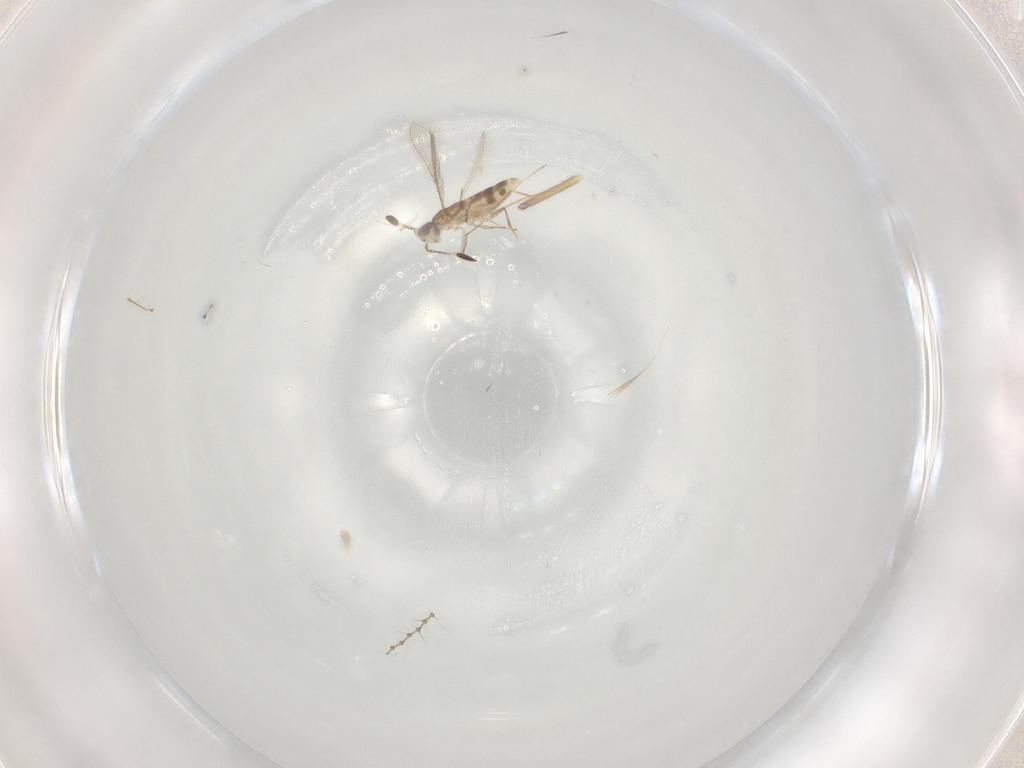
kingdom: Animalia
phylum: Arthropoda
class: Insecta
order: Hymenoptera
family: Mymaridae
